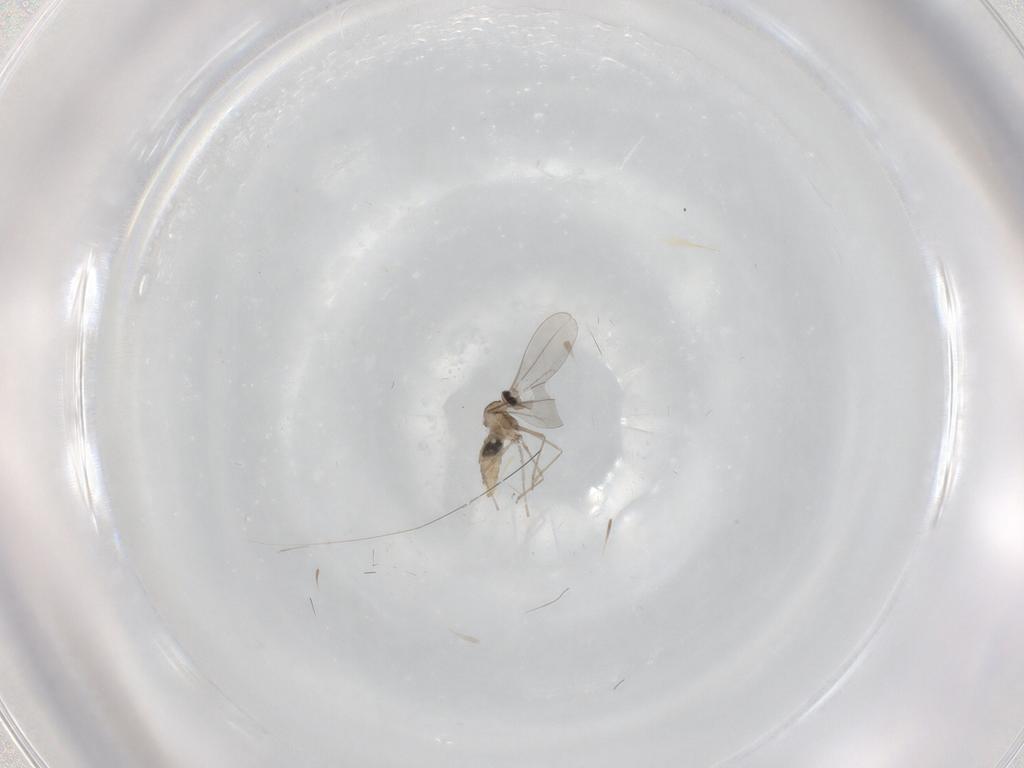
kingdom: Animalia
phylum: Arthropoda
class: Insecta
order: Diptera
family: Cecidomyiidae
